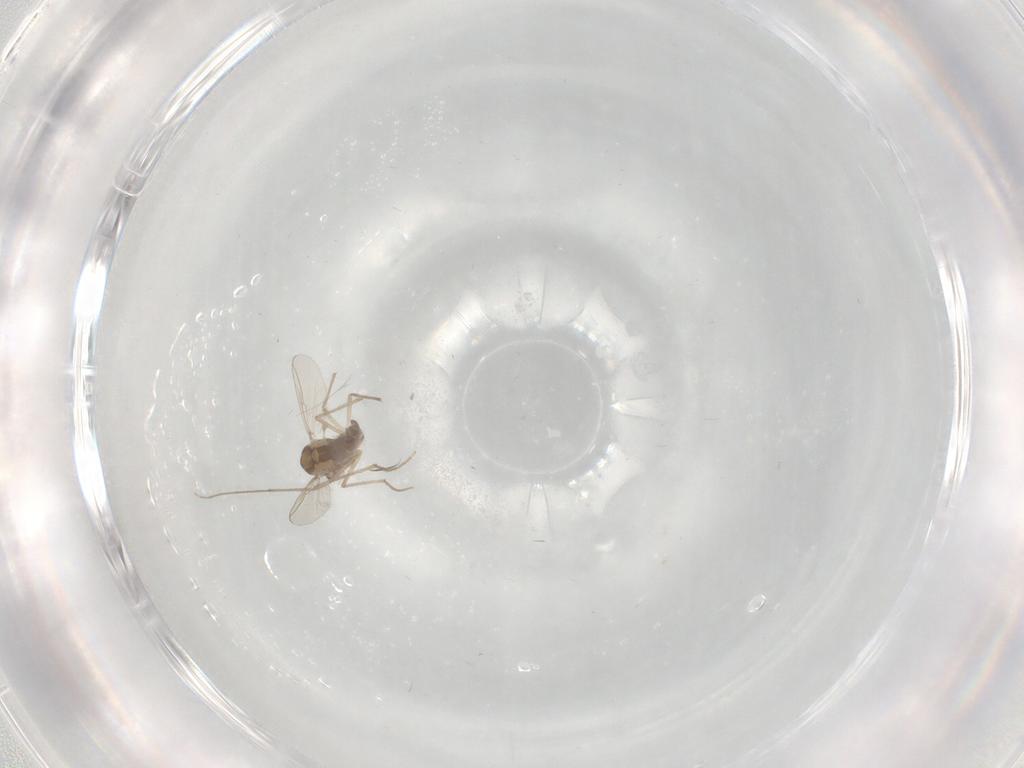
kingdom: Animalia
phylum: Arthropoda
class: Insecta
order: Diptera
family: Chironomidae
